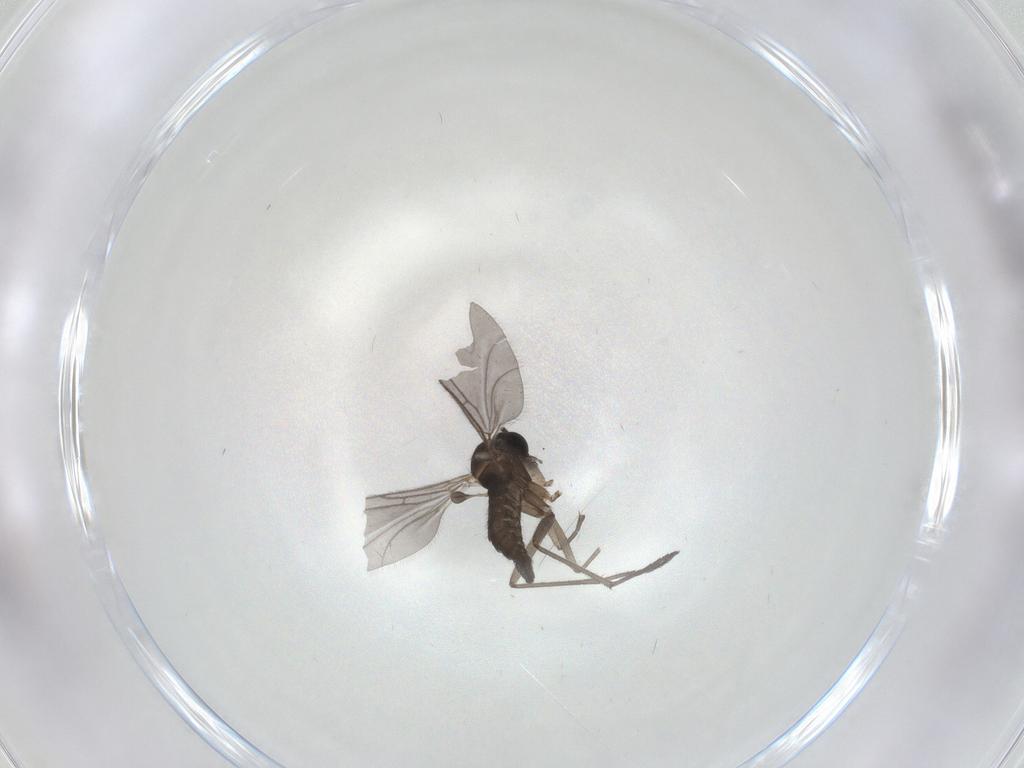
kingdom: Animalia
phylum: Arthropoda
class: Insecta
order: Diptera
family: Sciaridae
